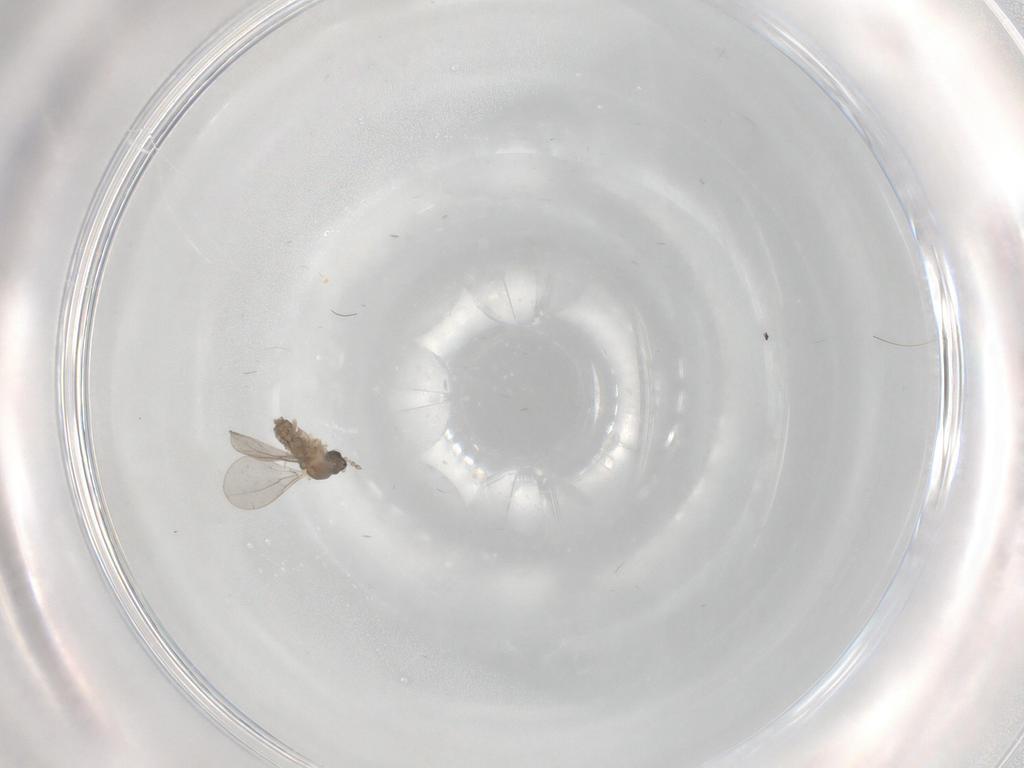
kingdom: Animalia
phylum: Arthropoda
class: Insecta
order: Diptera
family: Cecidomyiidae
